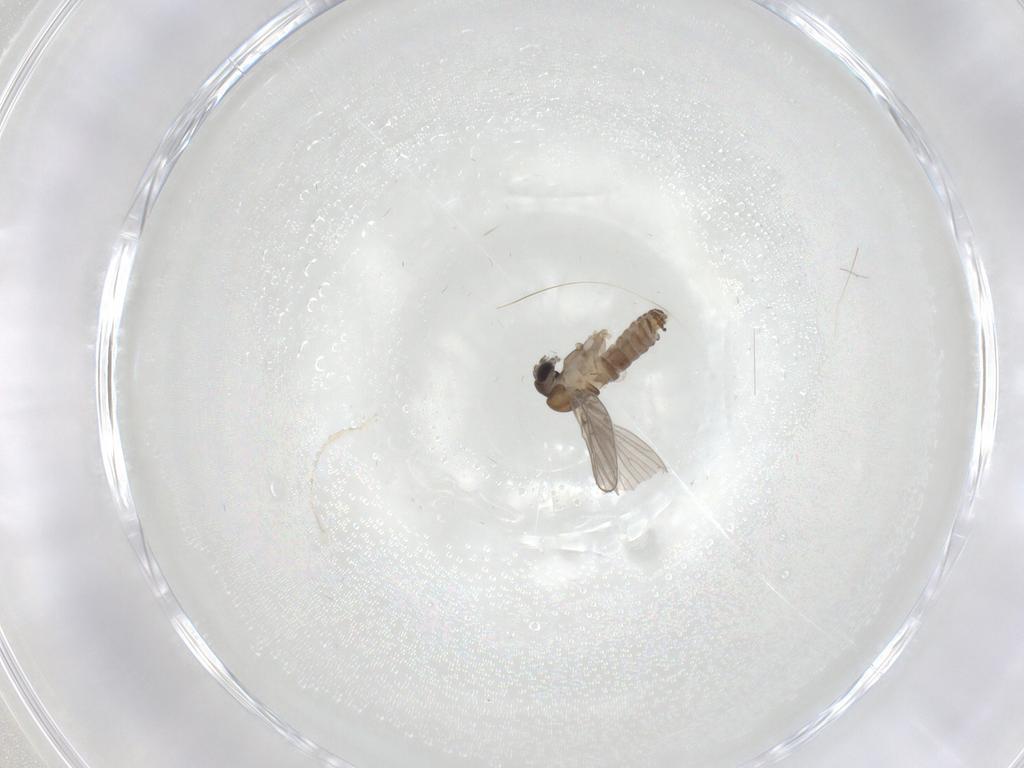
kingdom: Animalia
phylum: Arthropoda
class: Insecta
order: Diptera
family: Psychodidae
